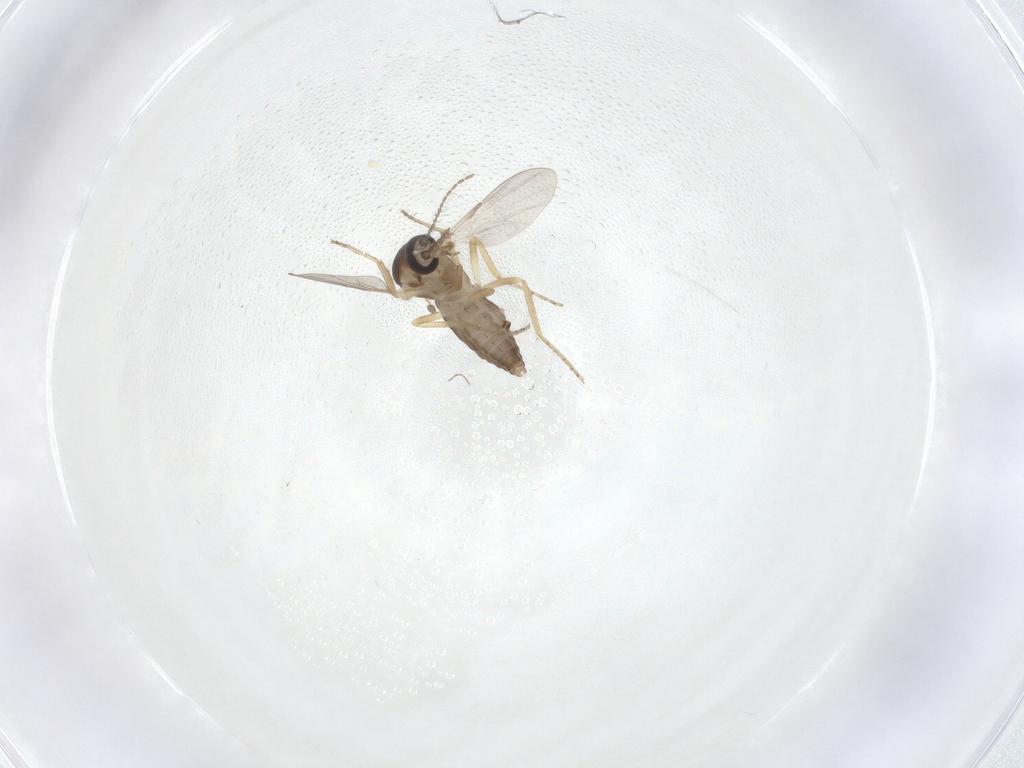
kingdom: Animalia
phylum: Arthropoda
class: Insecta
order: Diptera
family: Ceratopogonidae
